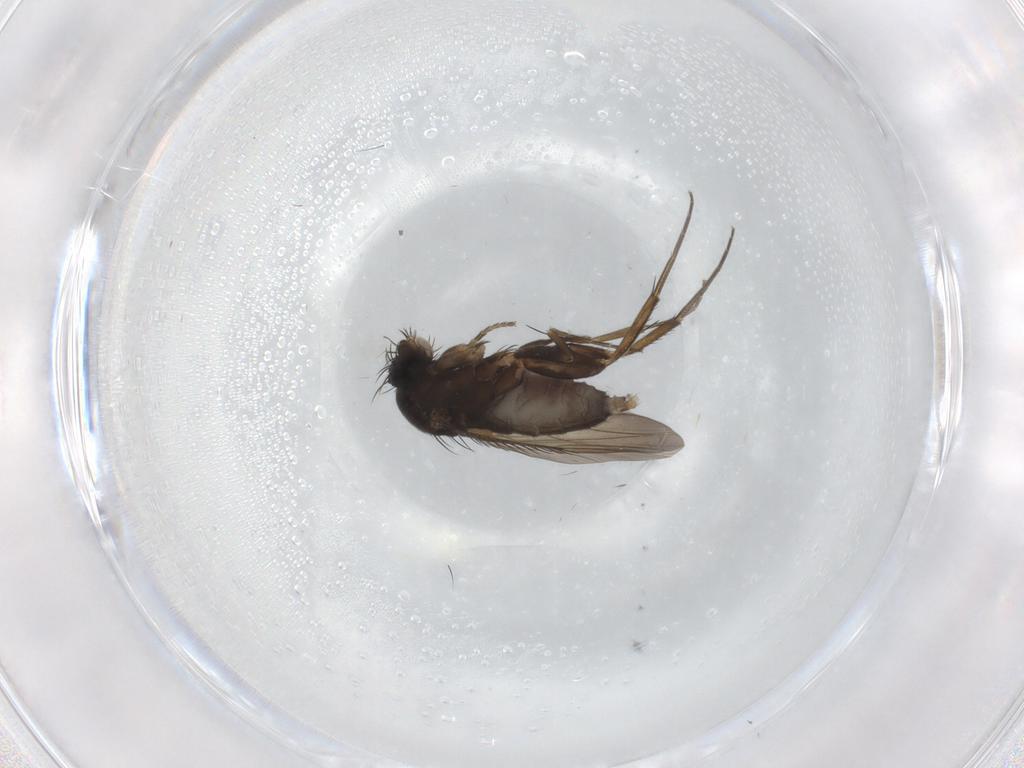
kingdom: Animalia
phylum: Arthropoda
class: Insecta
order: Diptera
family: Phoridae
